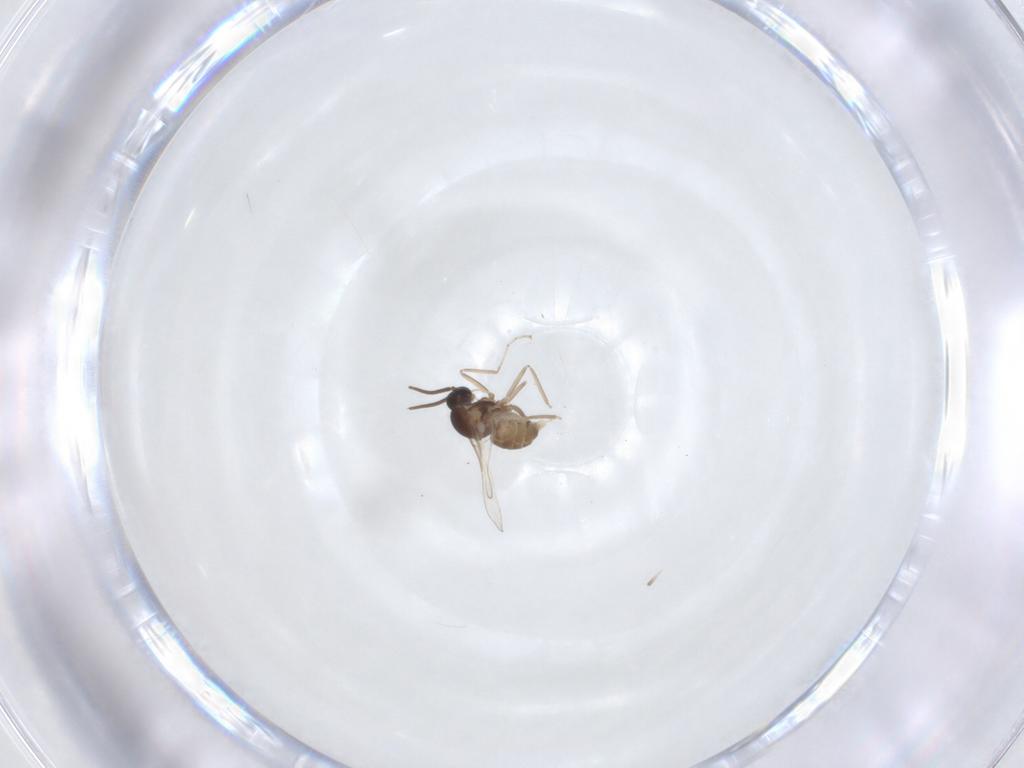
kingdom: Animalia
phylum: Arthropoda
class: Insecta
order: Diptera
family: Cecidomyiidae
